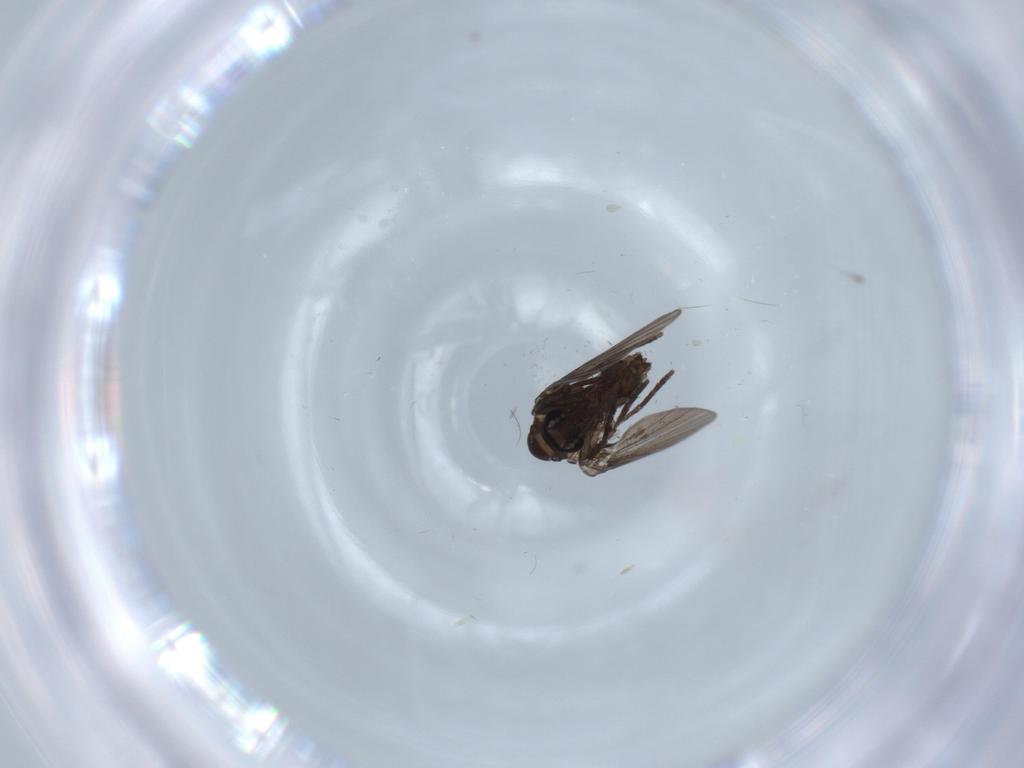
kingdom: Animalia
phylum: Arthropoda
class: Insecta
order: Diptera
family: Psychodidae
